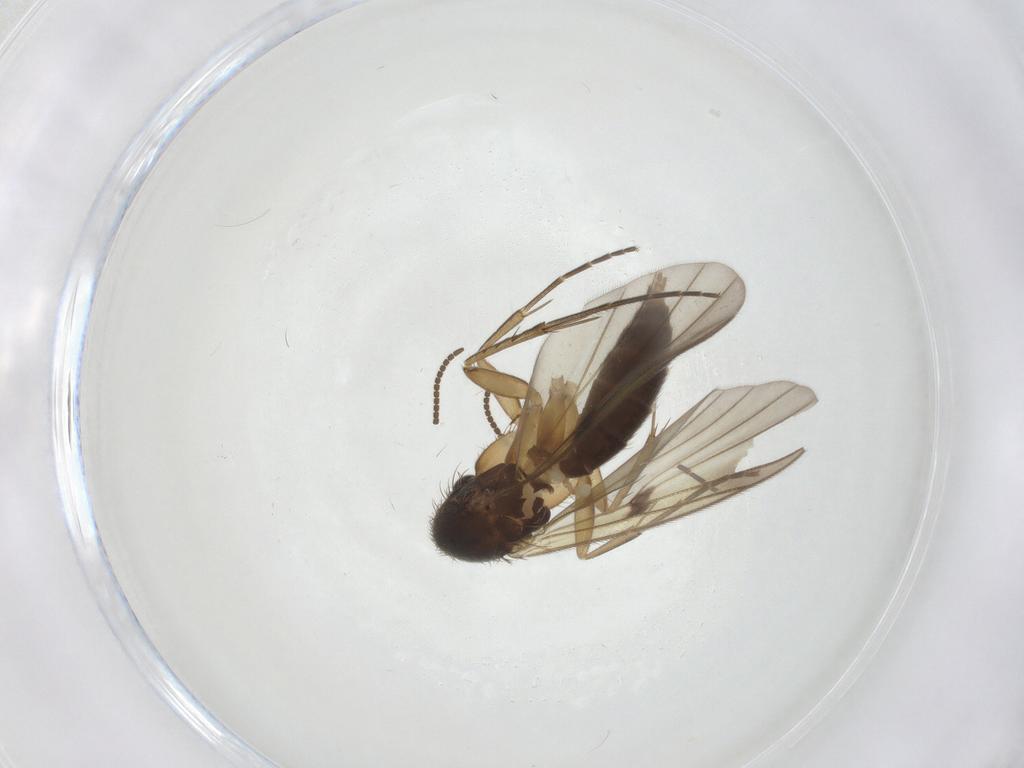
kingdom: Animalia
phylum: Arthropoda
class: Insecta
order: Diptera
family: Mycetophilidae
